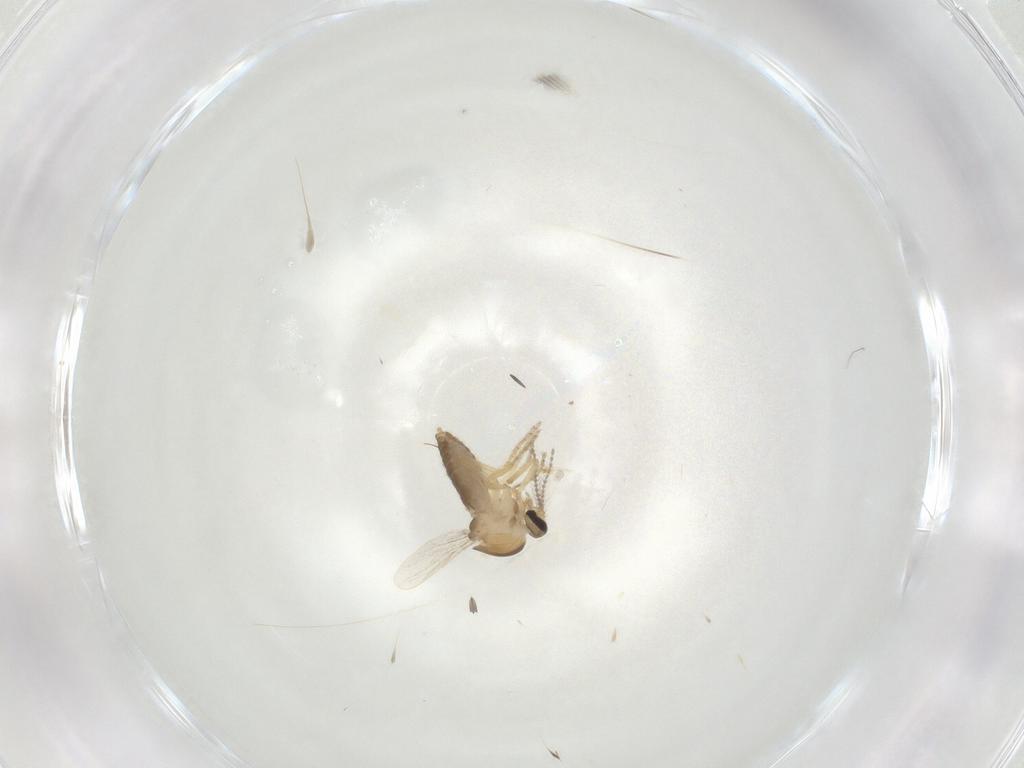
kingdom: Animalia
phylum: Arthropoda
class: Insecta
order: Diptera
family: Ceratopogonidae
